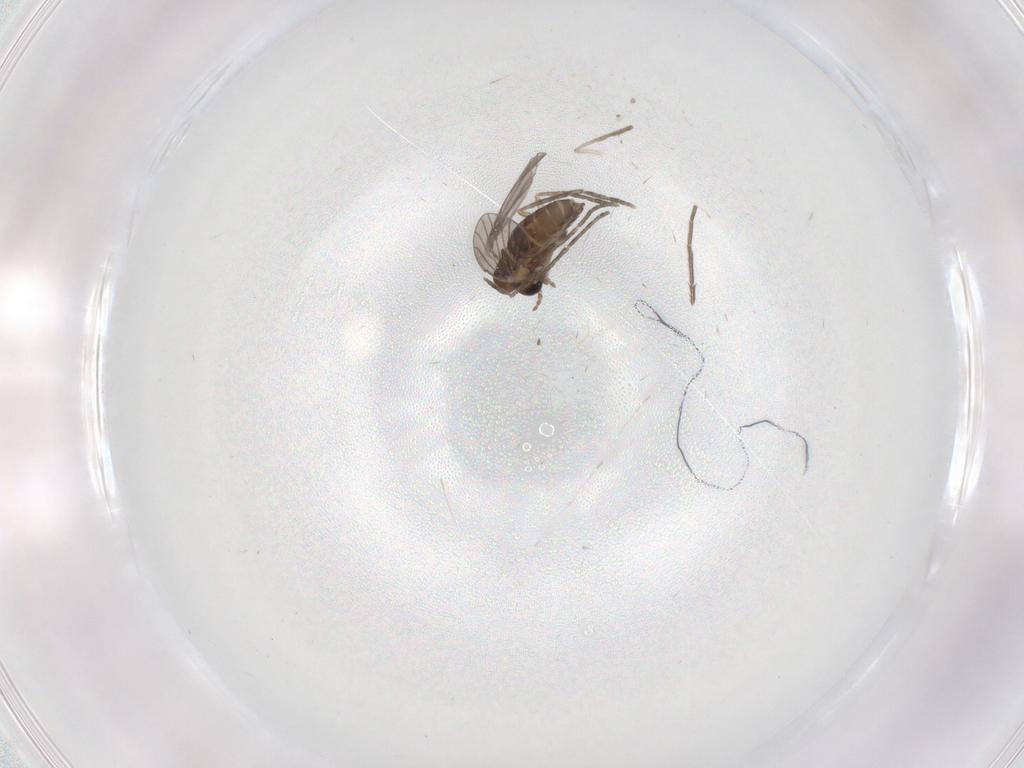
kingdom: Animalia
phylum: Arthropoda
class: Insecta
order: Diptera
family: Cecidomyiidae
